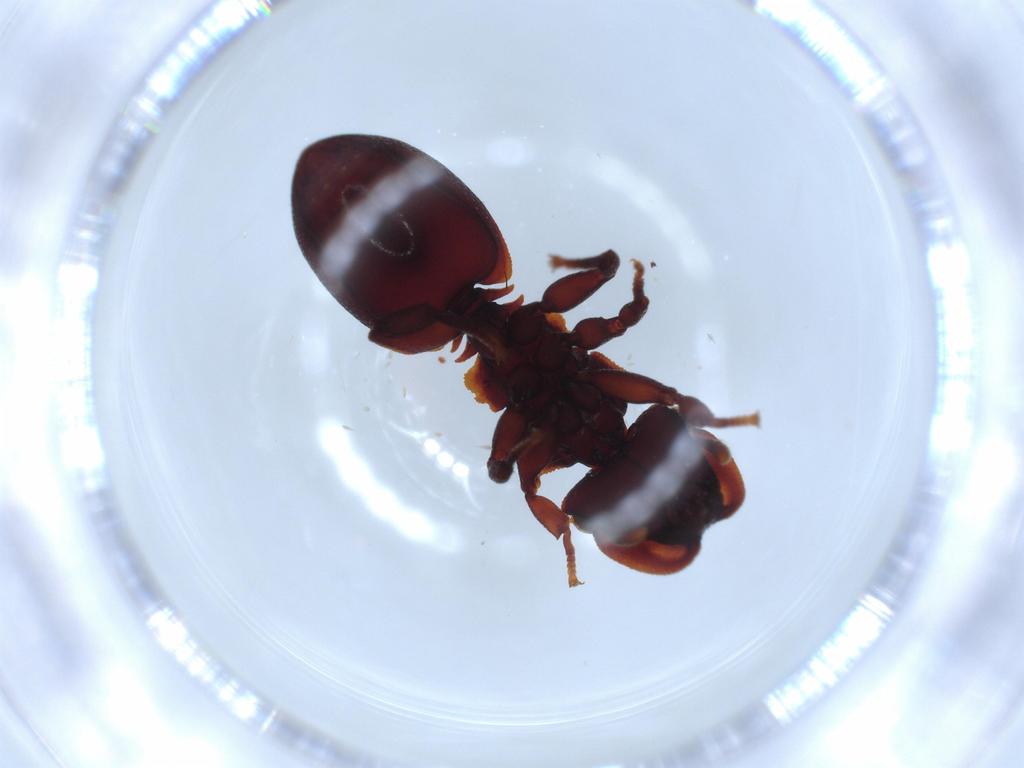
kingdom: Animalia
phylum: Arthropoda
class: Insecta
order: Hymenoptera
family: Formicidae
